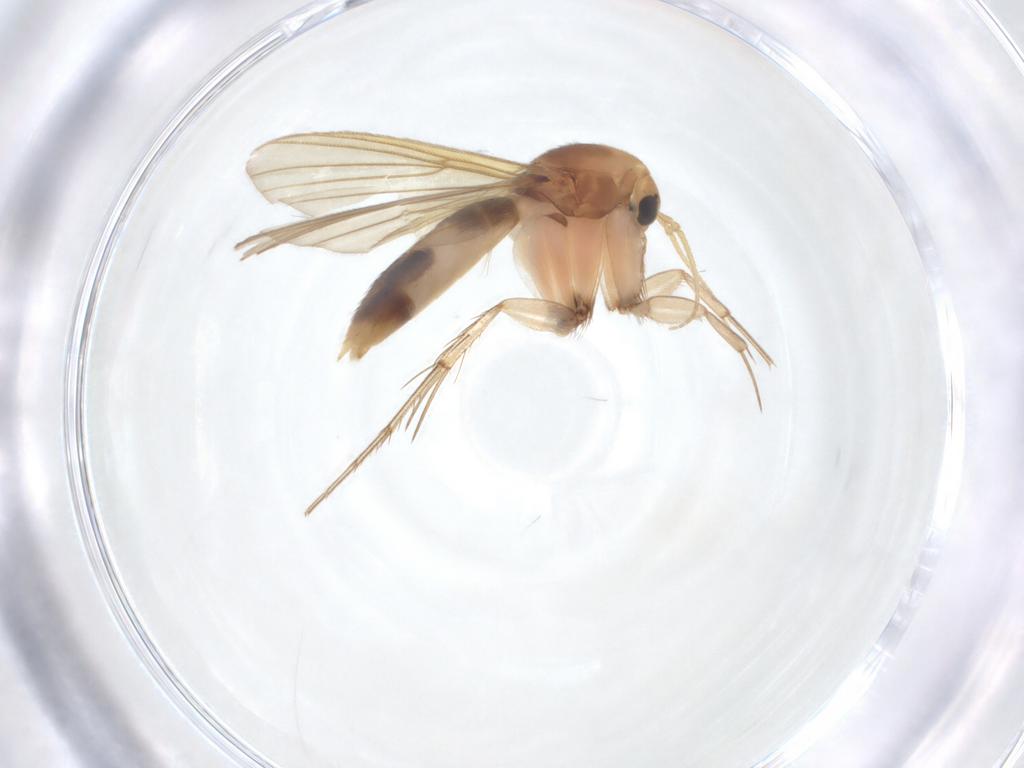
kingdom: Animalia
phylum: Arthropoda
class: Insecta
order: Diptera
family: Mycetophilidae
